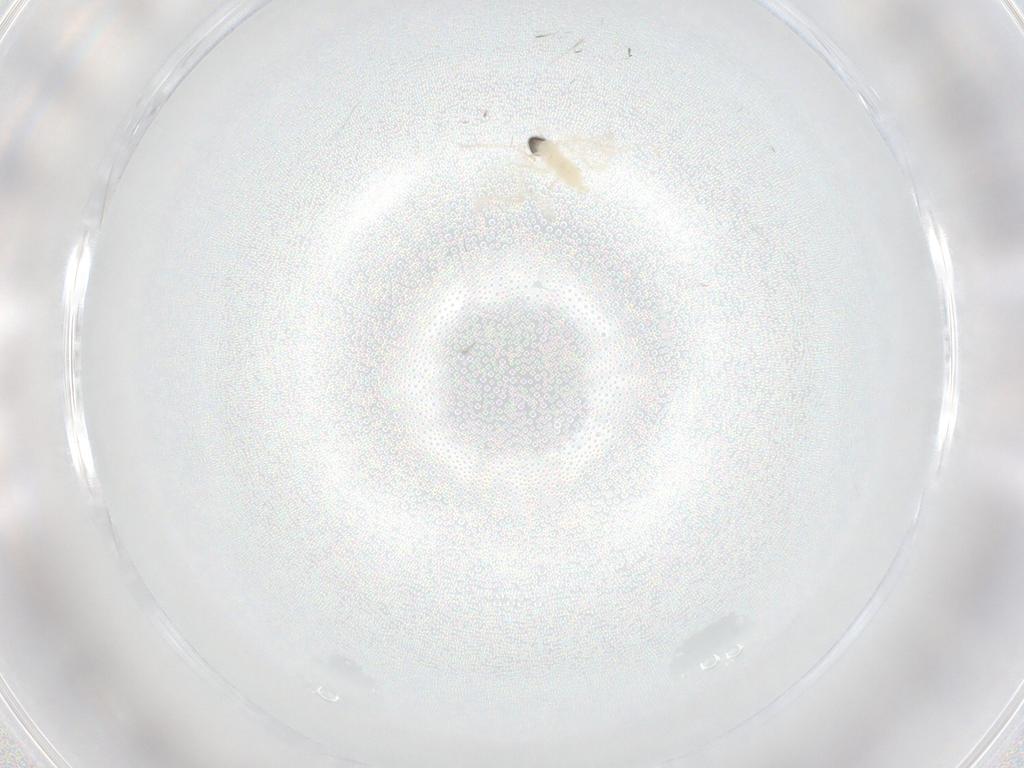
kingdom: Animalia
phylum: Arthropoda
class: Insecta
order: Diptera
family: Cecidomyiidae
